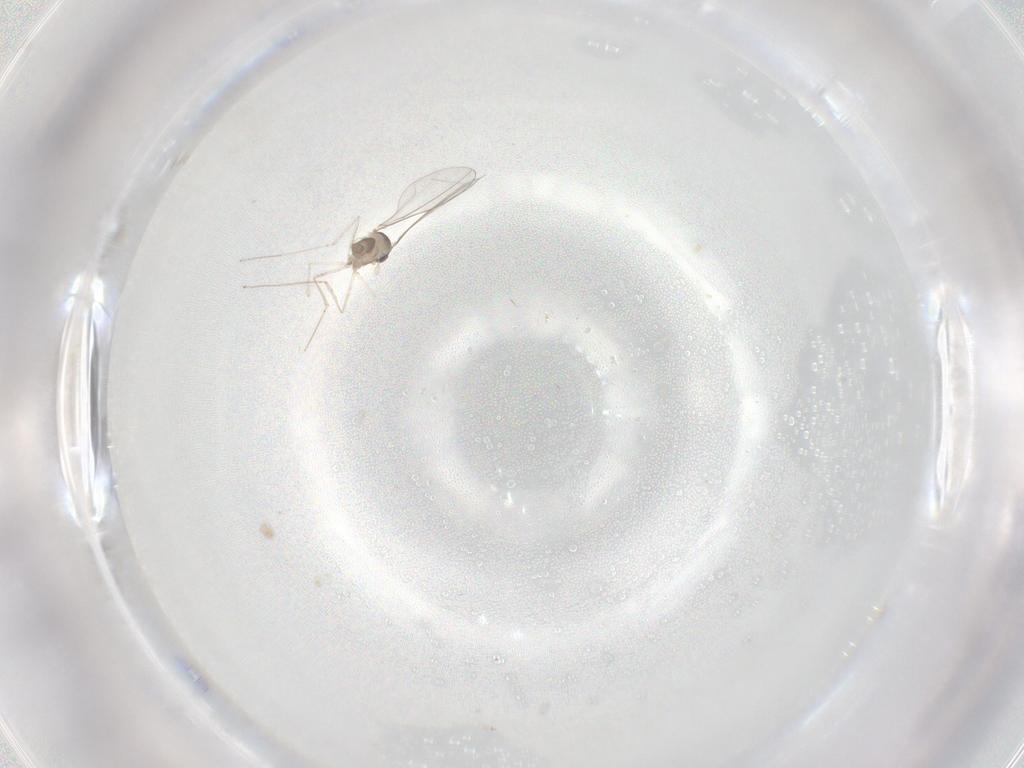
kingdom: Animalia
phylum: Arthropoda
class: Insecta
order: Diptera
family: Cecidomyiidae
